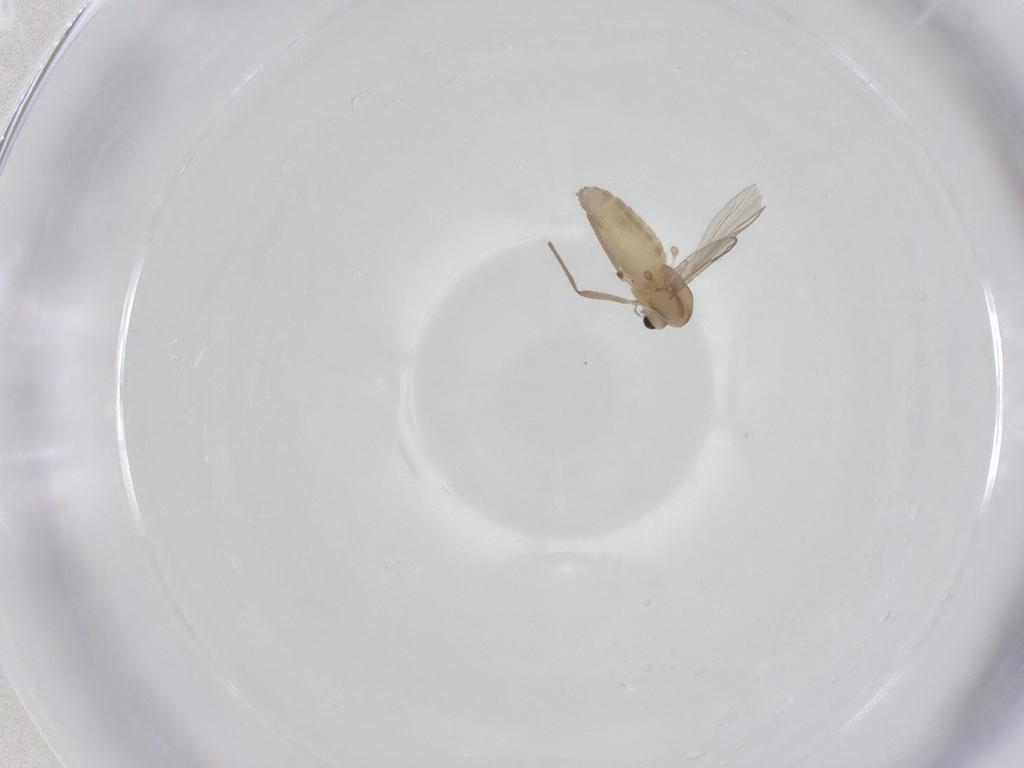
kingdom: Animalia
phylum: Arthropoda
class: Insecta
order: Diptera
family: Chironomidae
